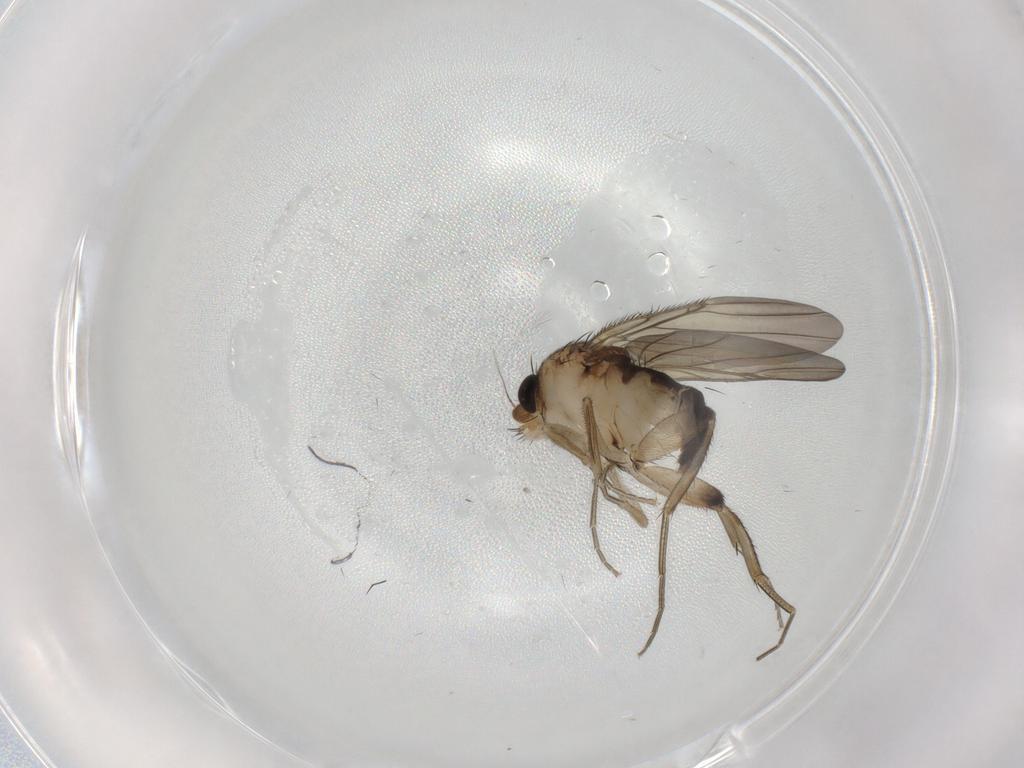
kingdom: Animalia
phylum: Arthropoda
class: Insecta
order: Diptera
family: Phoridae
